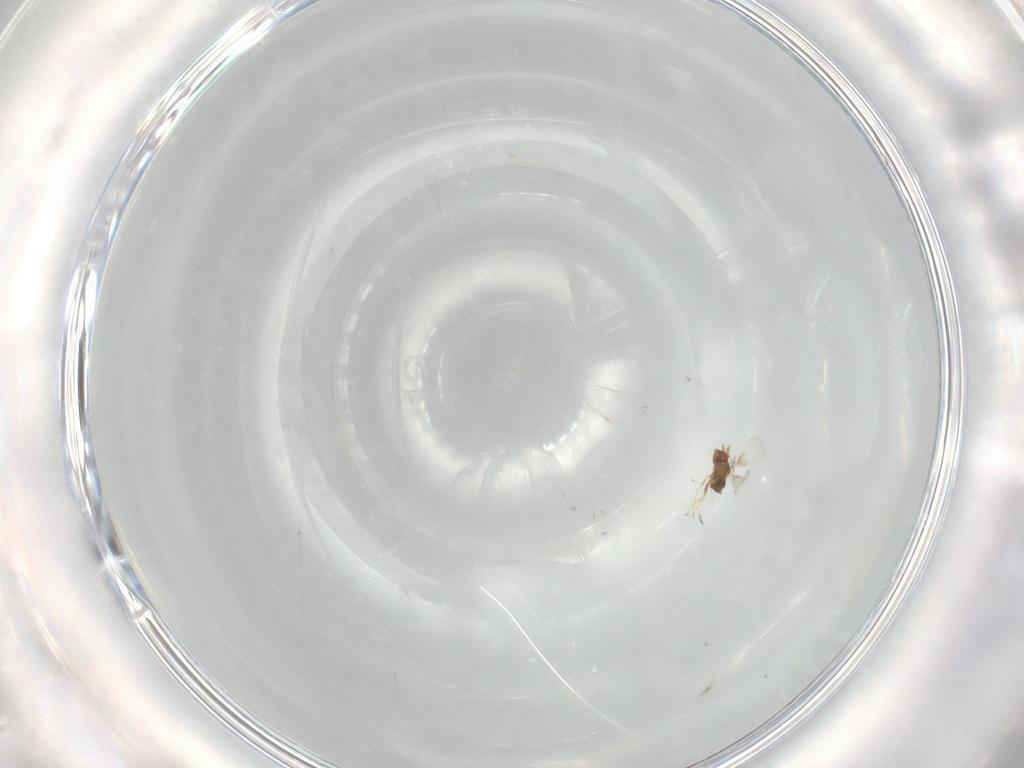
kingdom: Animalia
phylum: Arthropoda
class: Insecta
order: Hymenoptera
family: Trichogrammatidae
